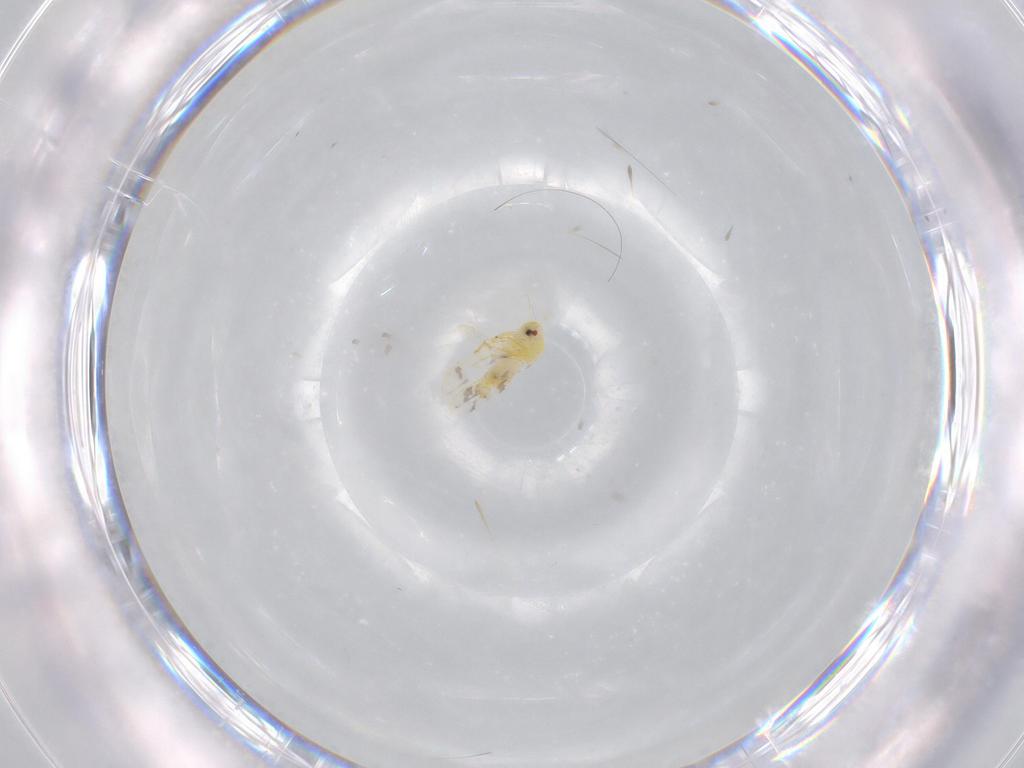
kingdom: Animalia
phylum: Arthropoda
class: Insecta
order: Hemiptera
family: Aleyrodidae
